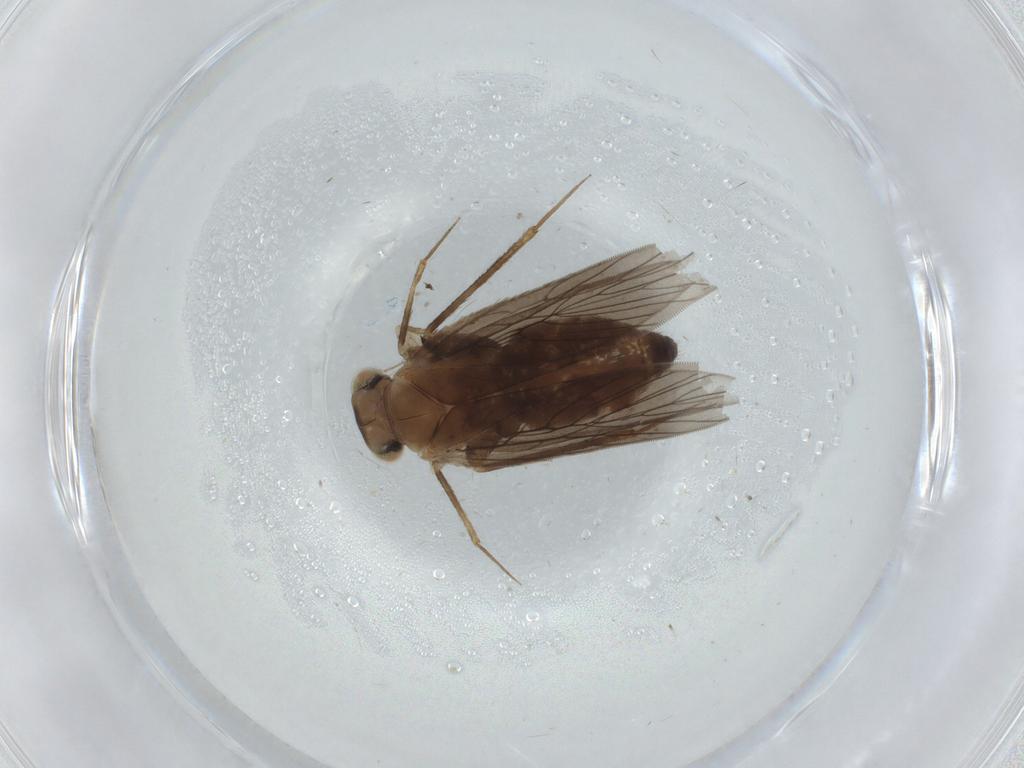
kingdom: Animalia
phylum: Arthropoda
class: Insecta
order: Psocodea
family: Lepidopsocidae
